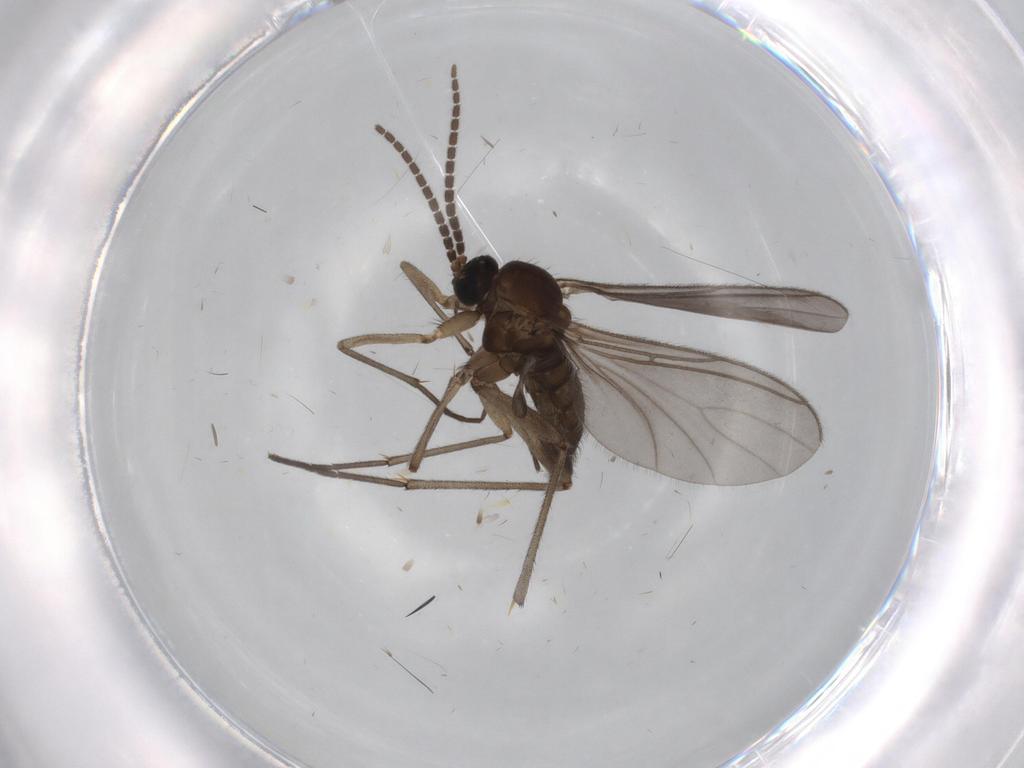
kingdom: Animalia
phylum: Arthropoda
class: Insecta
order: Diptera
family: Sciaridae
